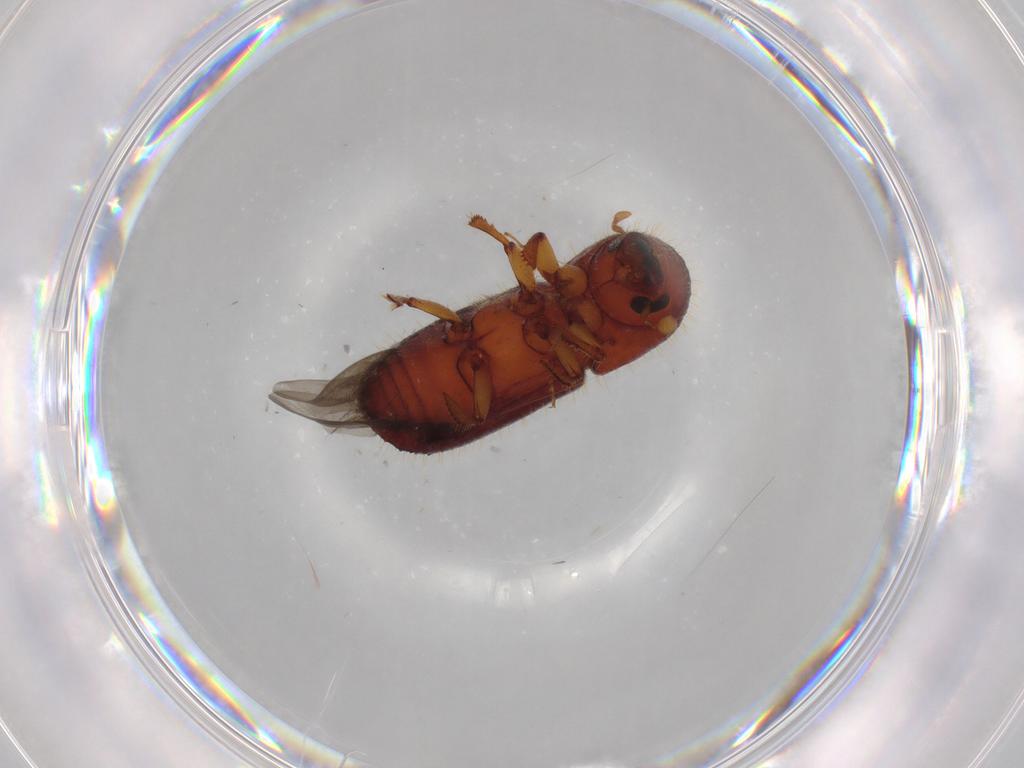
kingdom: Animalia
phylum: Arthropoda
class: Insecta
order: Coleoptera
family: Curculionidae
